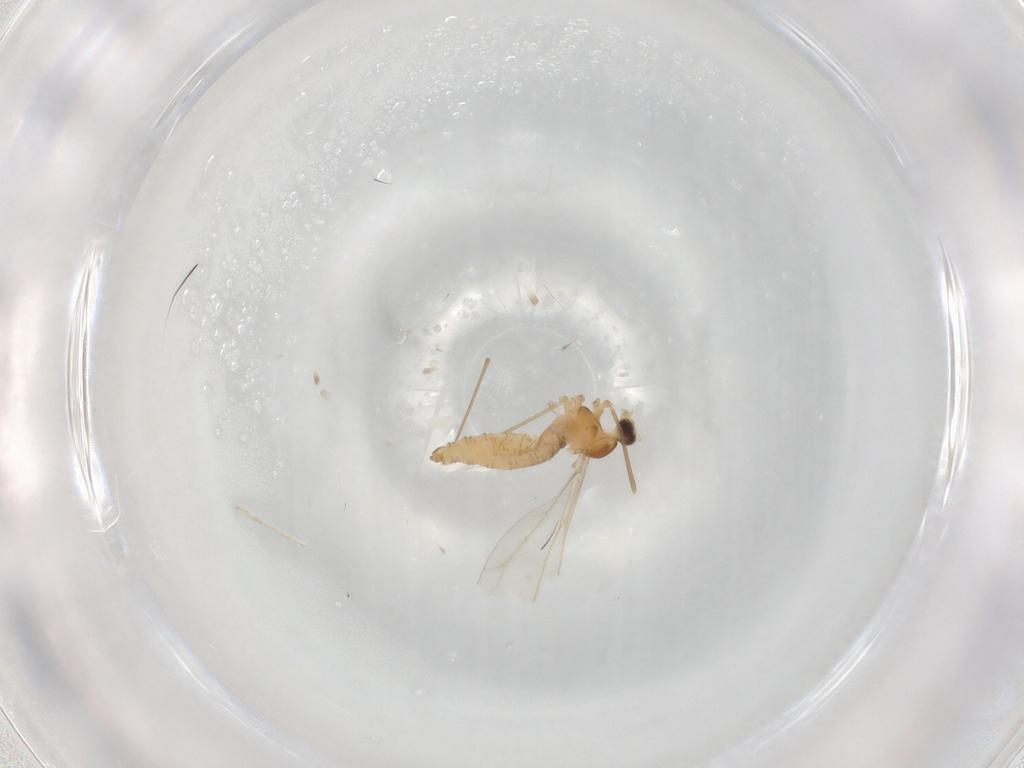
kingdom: Animalia
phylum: Arthropoda
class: Insecta
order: Diptera
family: Cecidomyiidae
